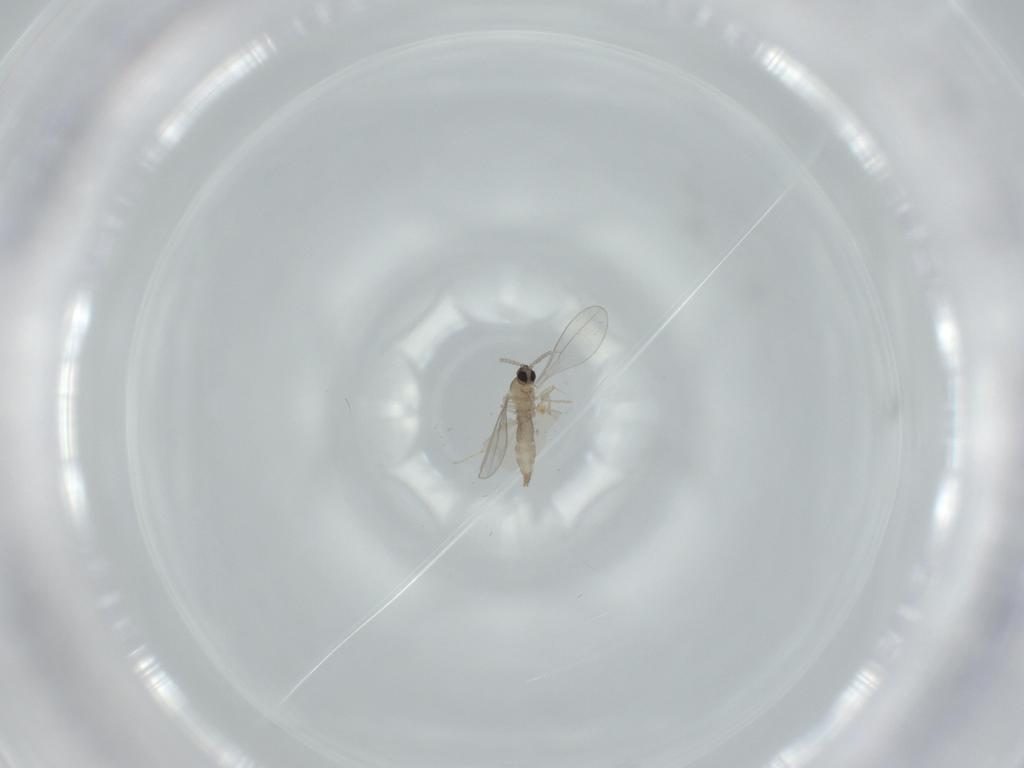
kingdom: Animalia
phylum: Arthropoda
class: Insecta
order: Diptera
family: Cecidomyiidae
